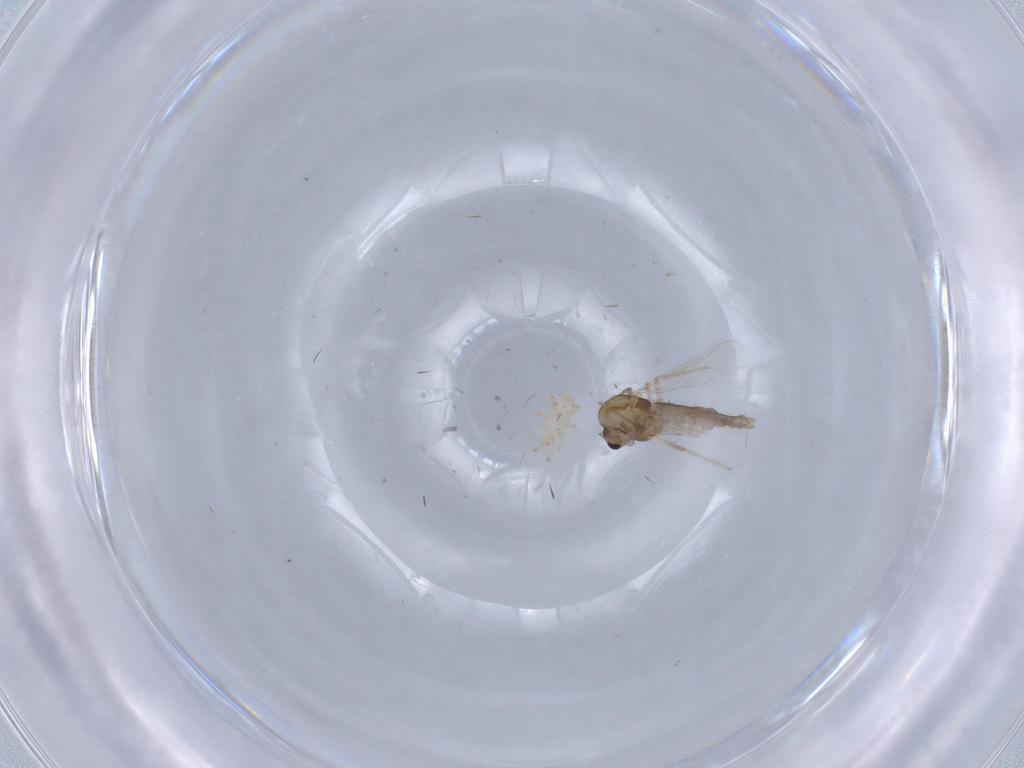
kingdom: Animalia
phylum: Arthropoda
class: Insecta
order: Diptera
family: Chironomidae
